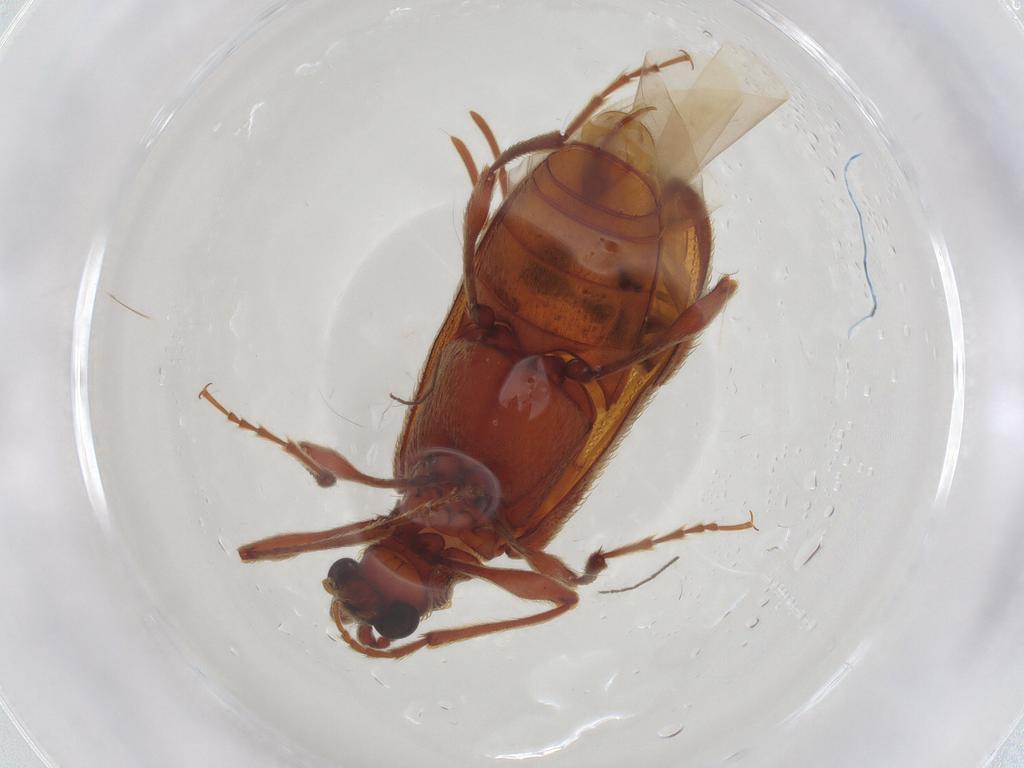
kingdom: Animalia
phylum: Arthropoda
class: Insecta
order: Coleoptera
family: Ptinidae
